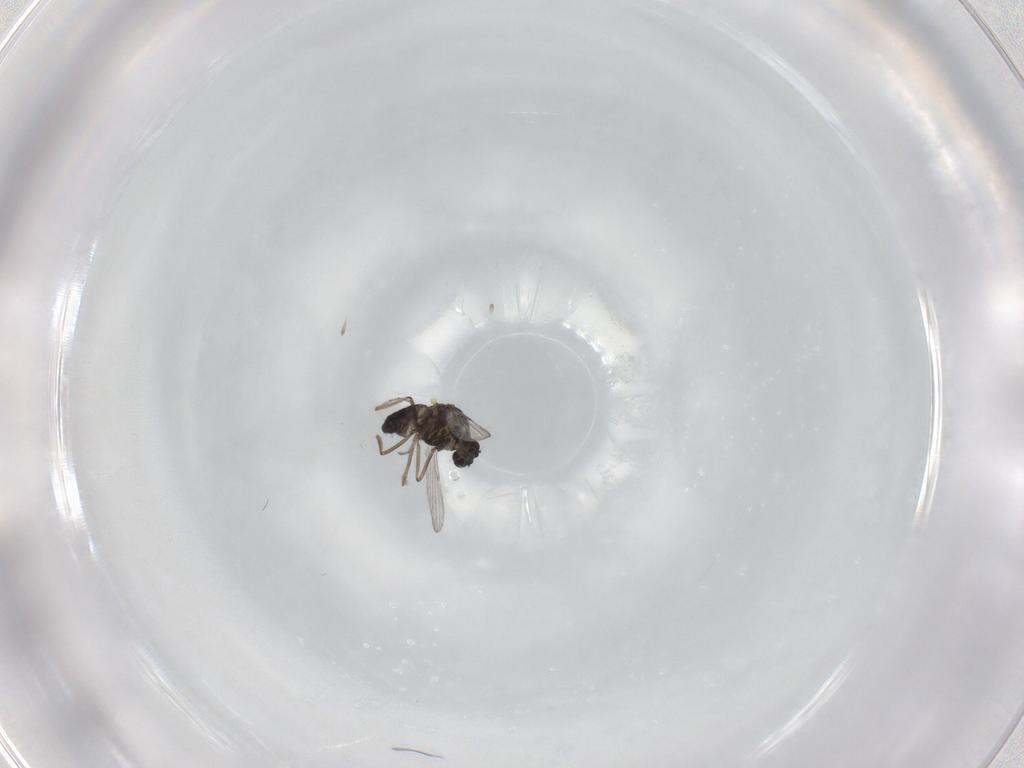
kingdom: Animalia
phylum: Arthropoda
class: Insecta
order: Diptera
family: Ceratopogonidae
